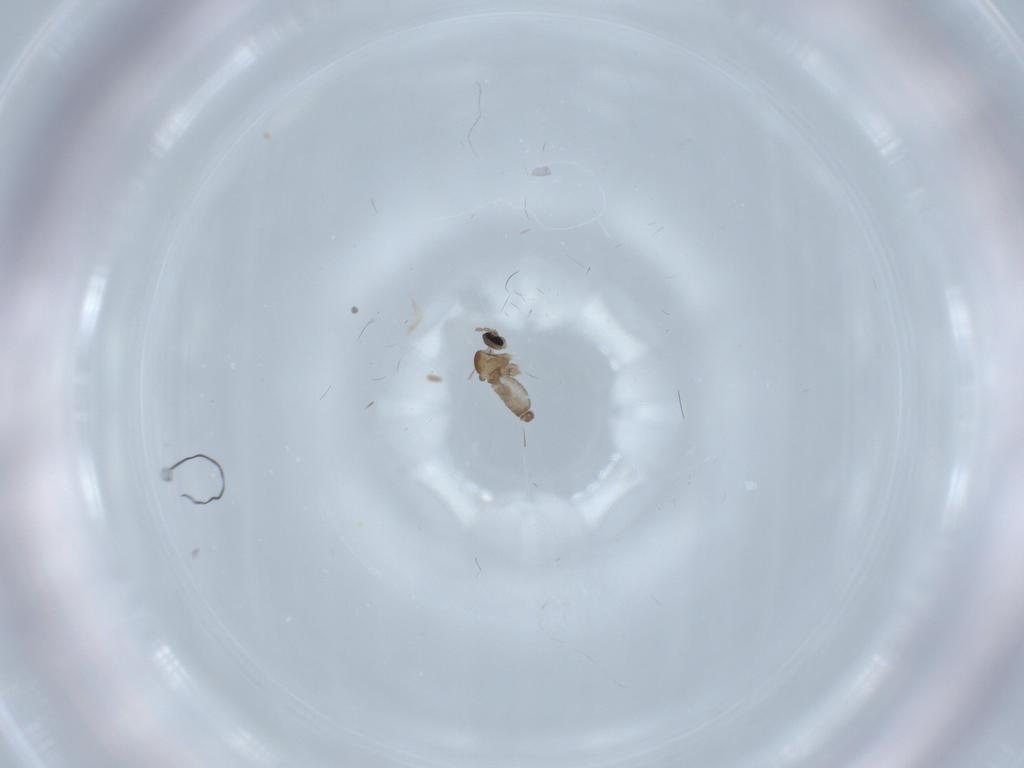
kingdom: Animalia
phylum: Arthropoda
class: Insecta
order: Diptera
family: Cecidomyiidae
